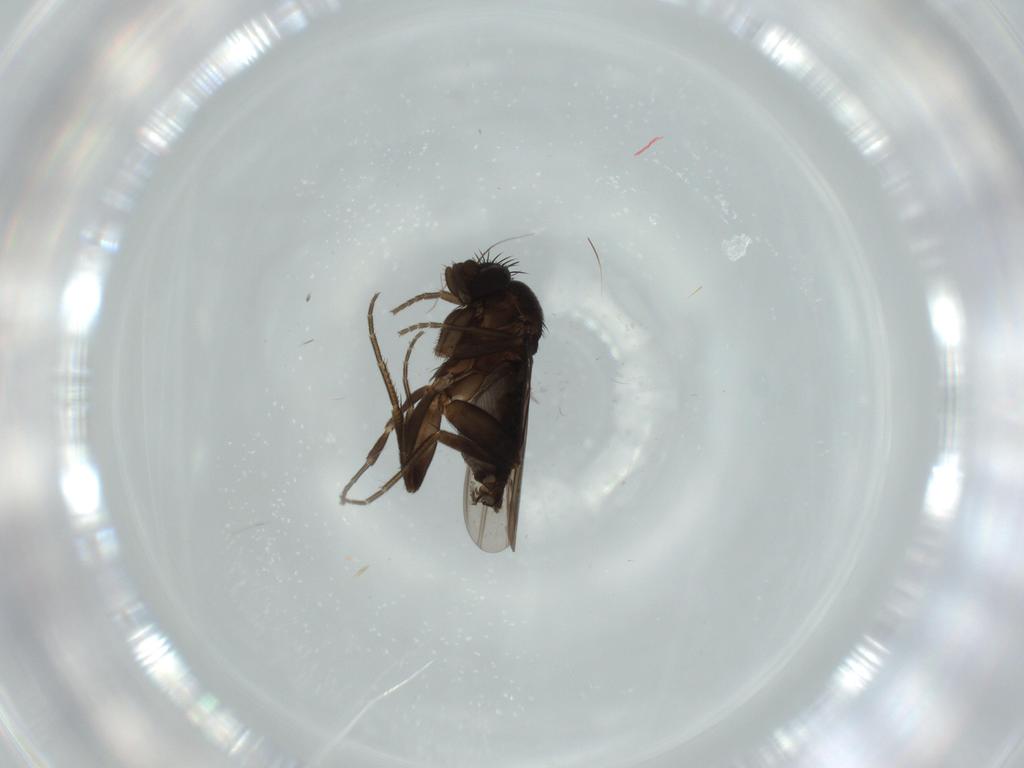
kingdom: Animalia
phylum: Arthropoda
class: Insecta
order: Diptera
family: Phoridae
